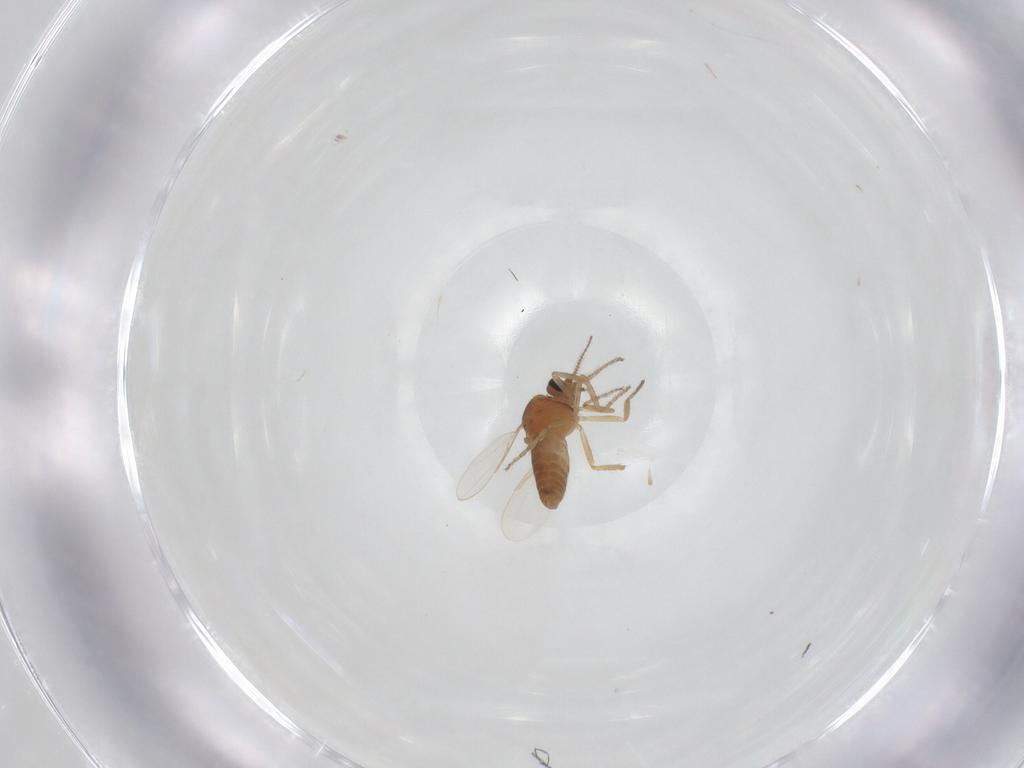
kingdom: Animalia
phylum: Arthropoda
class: Insecta
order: Diptera
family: Ceratopogonidae
